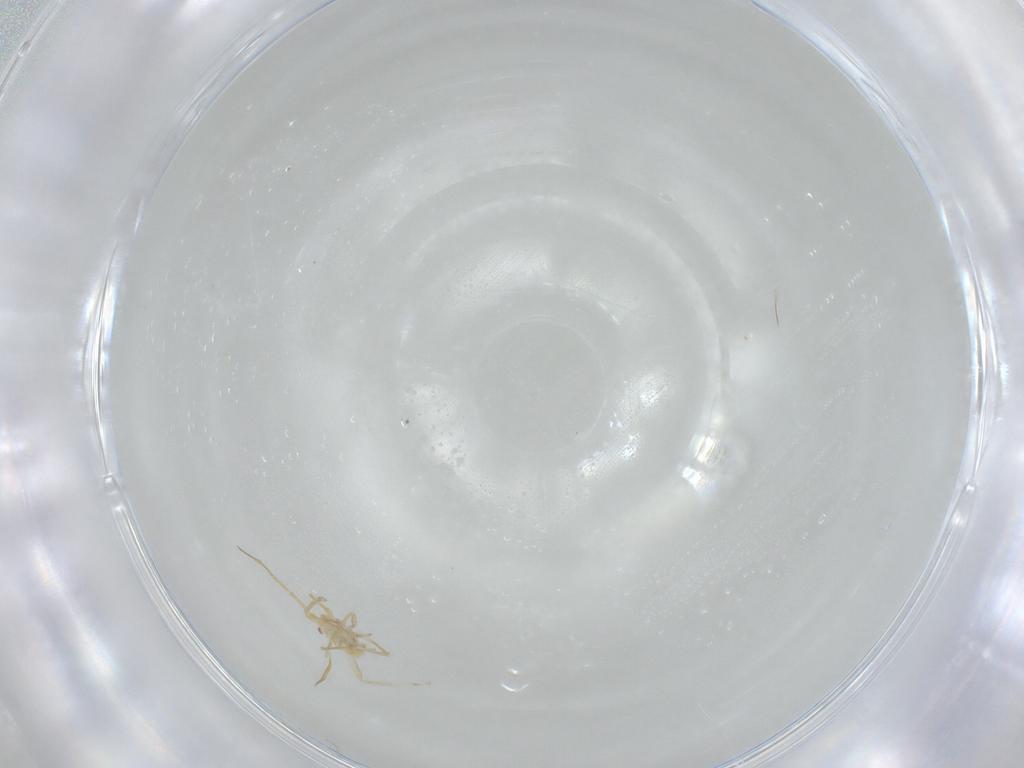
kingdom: Animalia
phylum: Arthropoda
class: Insecta
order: Hemiptera
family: Miridae
